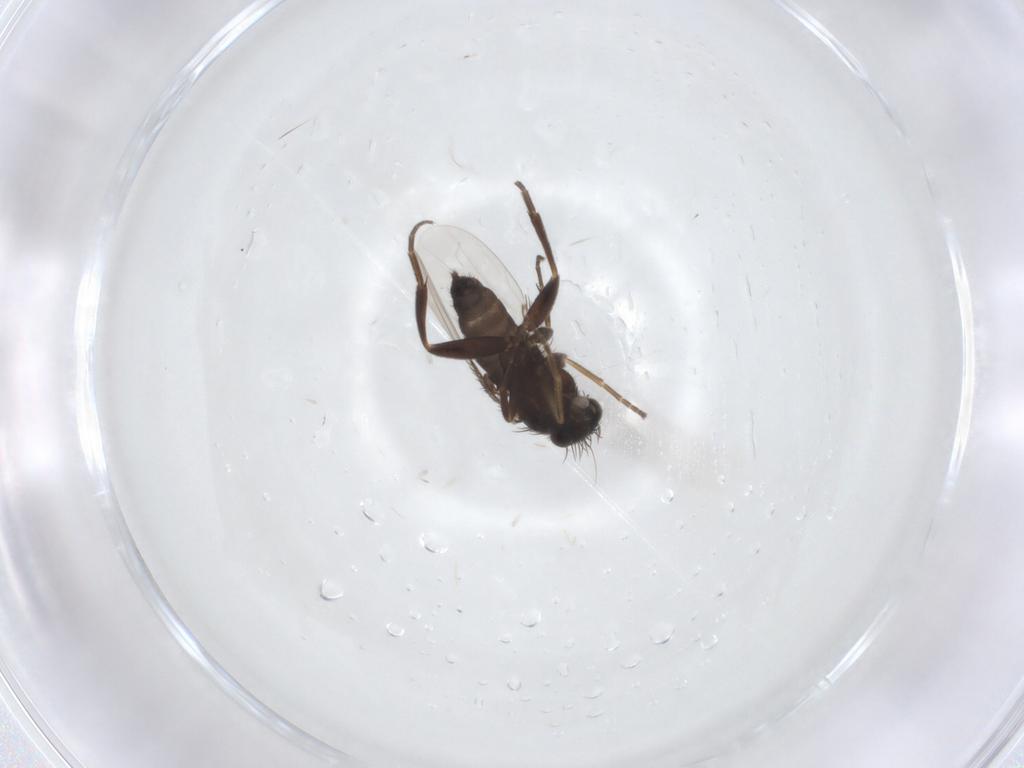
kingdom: Animalia
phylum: Arthropoda
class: Insecta
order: Diptera
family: Phoridae
